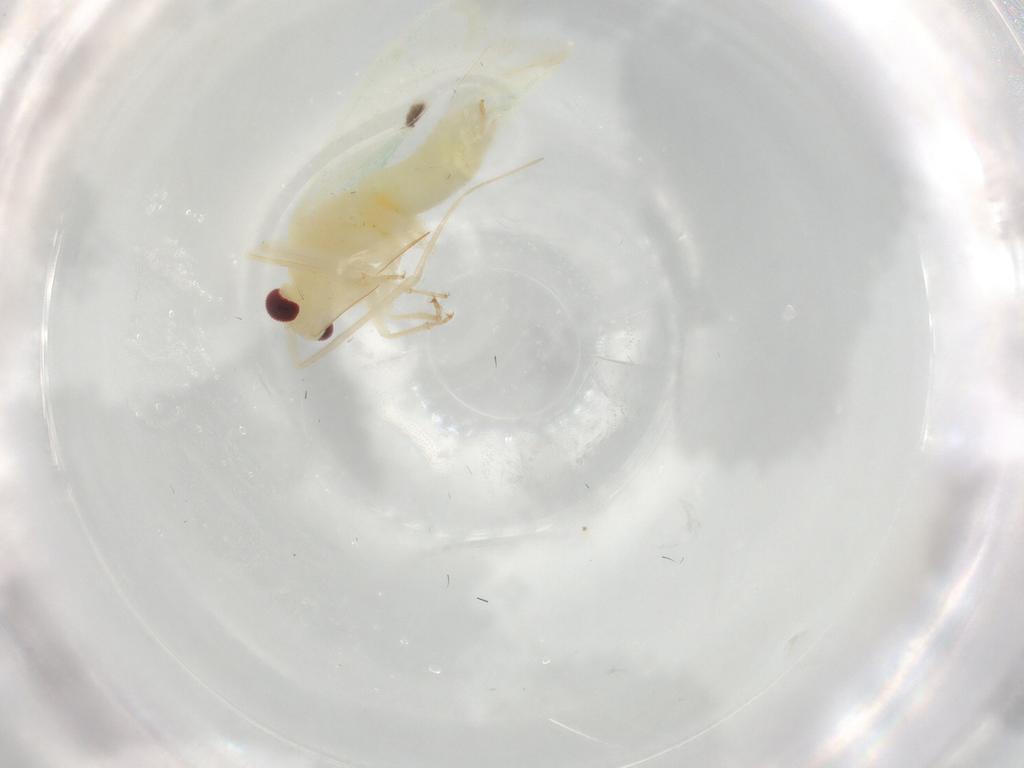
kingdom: Animalia
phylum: Arthropoda
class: Insecta
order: Hemiptera
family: Miridae
